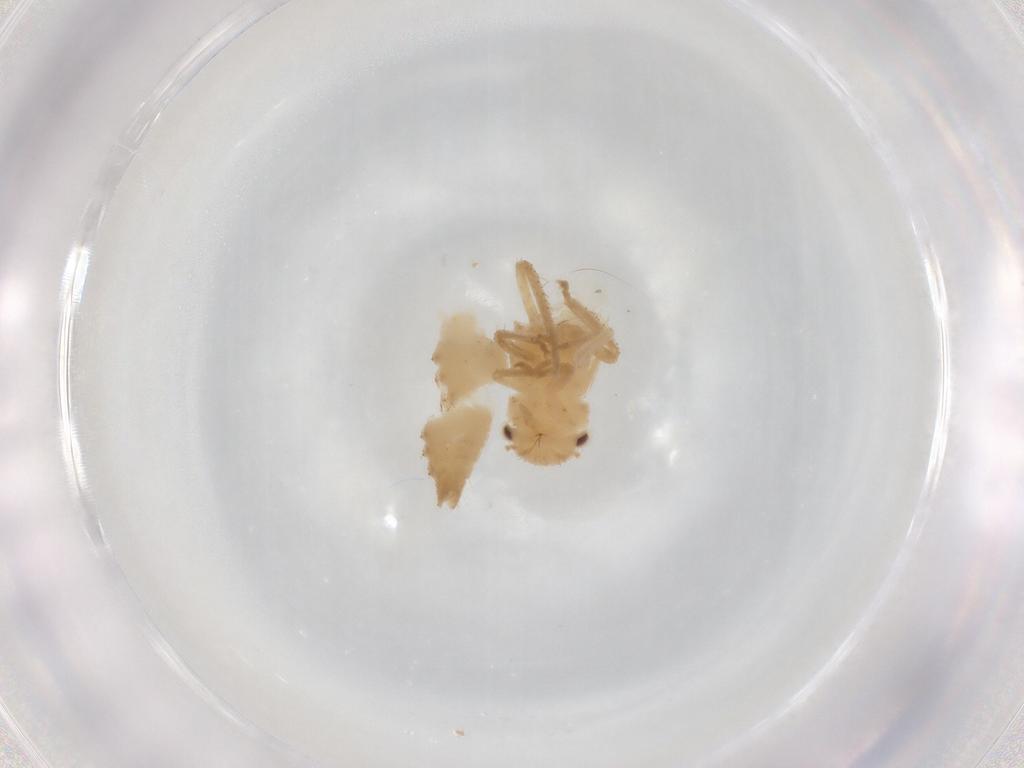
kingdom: Animalia
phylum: Arthropoda
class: Insecta
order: Hemiptera
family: Cicadellidae
